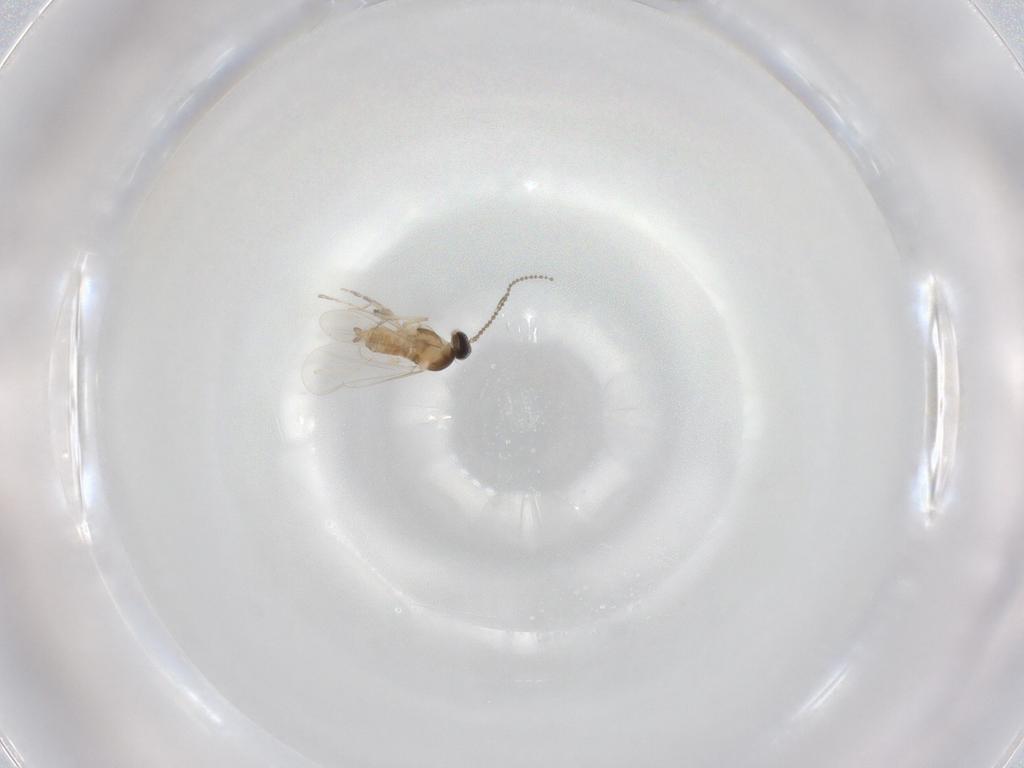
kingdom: Animalia
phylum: Arthropoda
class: Insecta
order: Diptera
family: Cecidomyiidae
